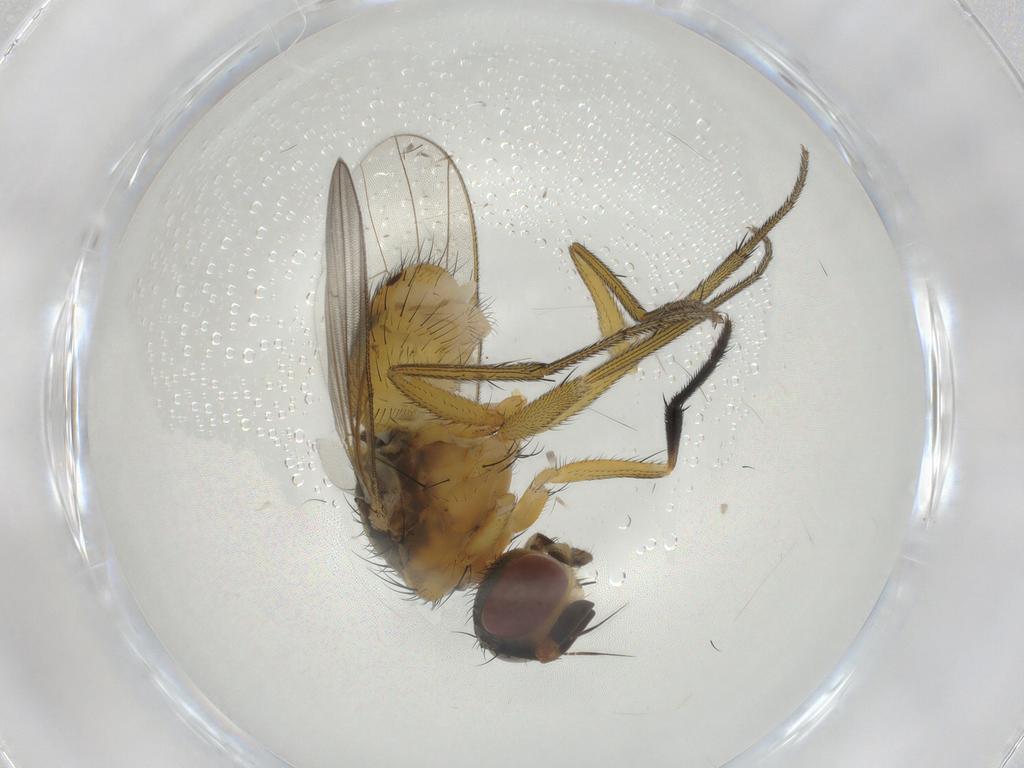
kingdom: Animalia
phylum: Arthropoda
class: Insecta
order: Diptera
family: Muscidae
